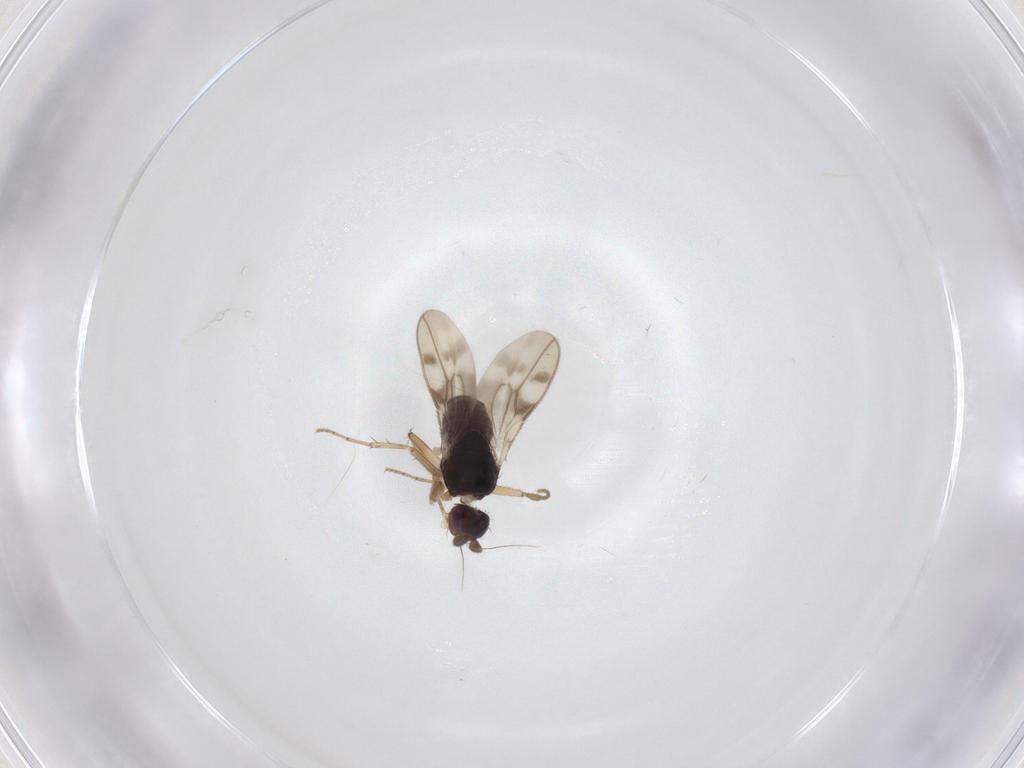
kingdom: Animalia
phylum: Arthropoda
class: Insecta
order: Diptera
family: Sphaeroceridae
